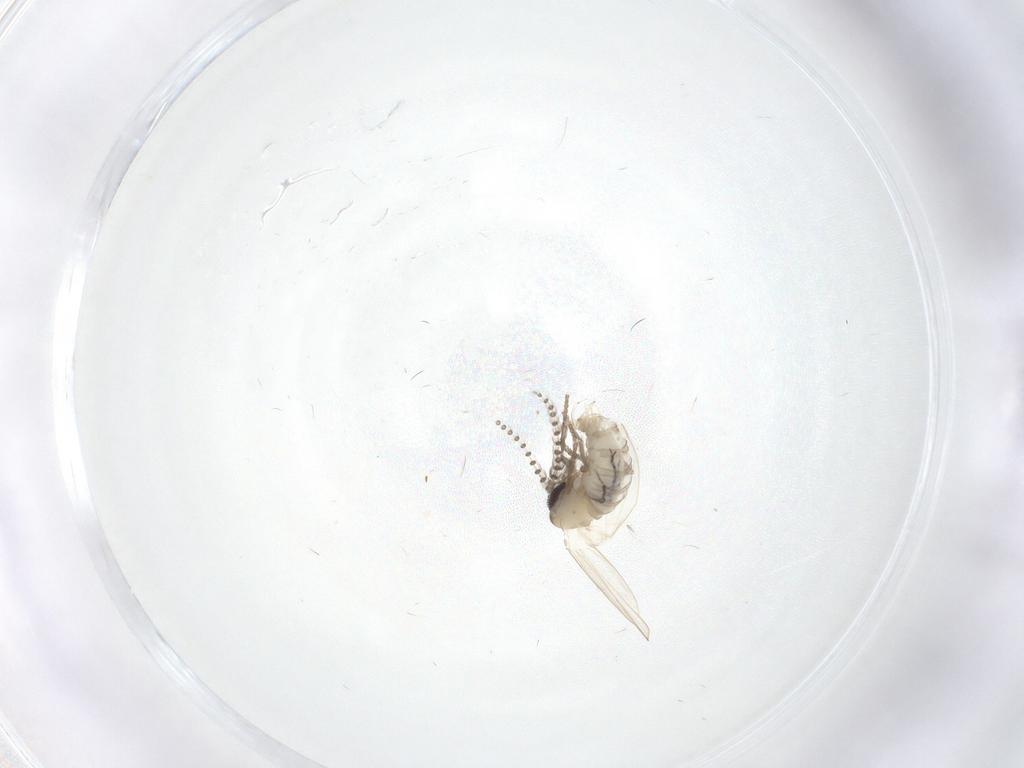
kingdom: Animalia
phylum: Arthropoda
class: Insecta
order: Diptera
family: Psychodidae
